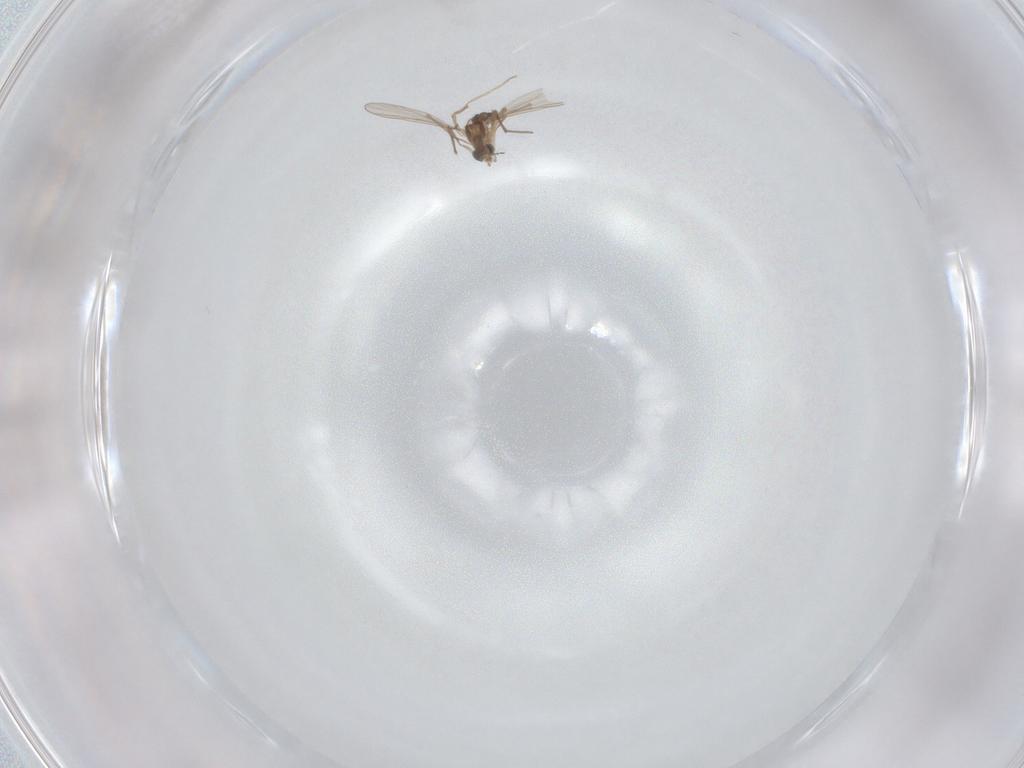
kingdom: Animalia
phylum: Arthropoda
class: Insecta
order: Diptera
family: Chironomidae
